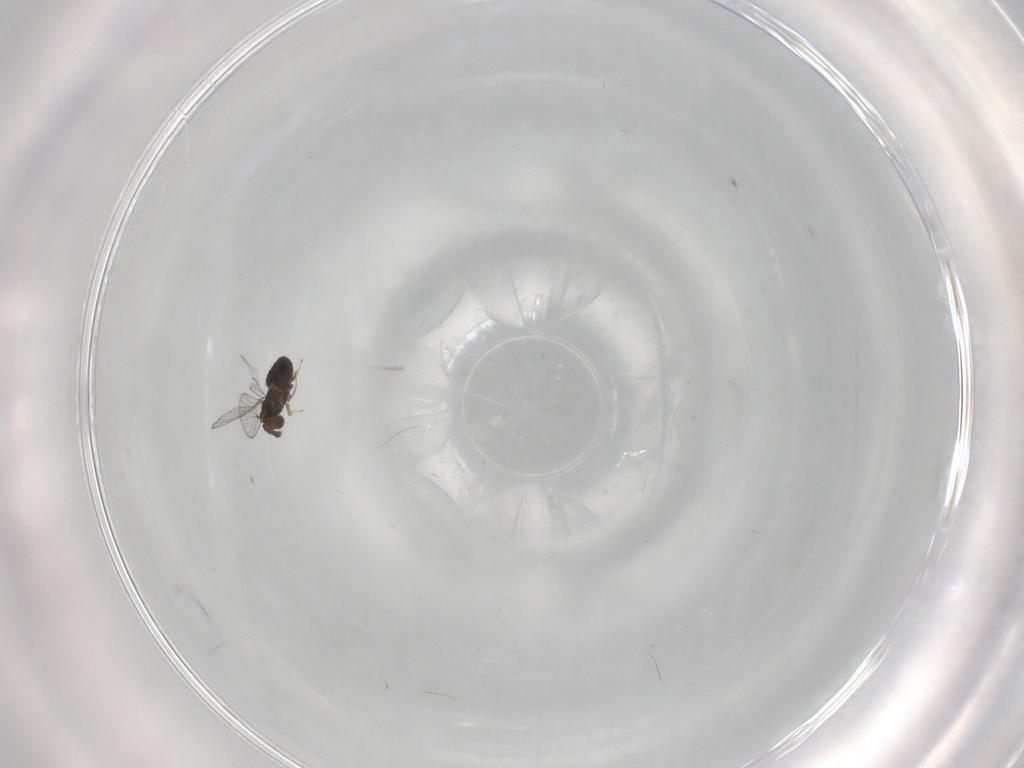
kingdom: Animalia
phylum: Arthropoda
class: Insecta
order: Hymenoptera
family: Trichogrammatidae
